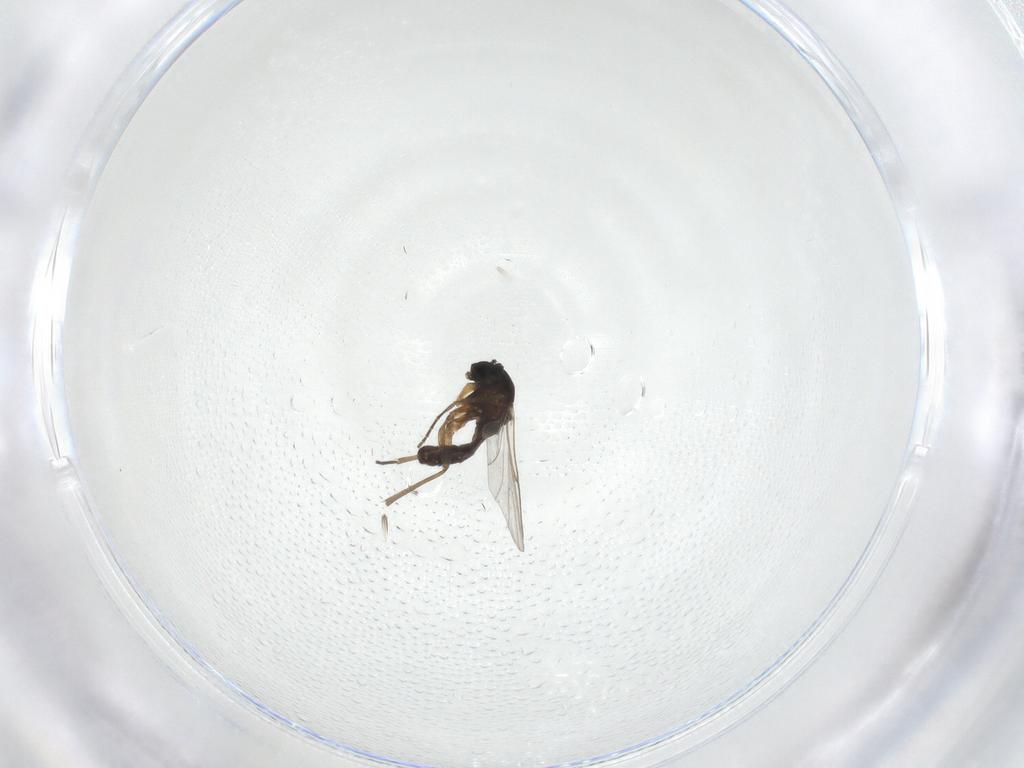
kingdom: Animalia
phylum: Arthropoda
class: Insecta
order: Diptera
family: Sciaridae
